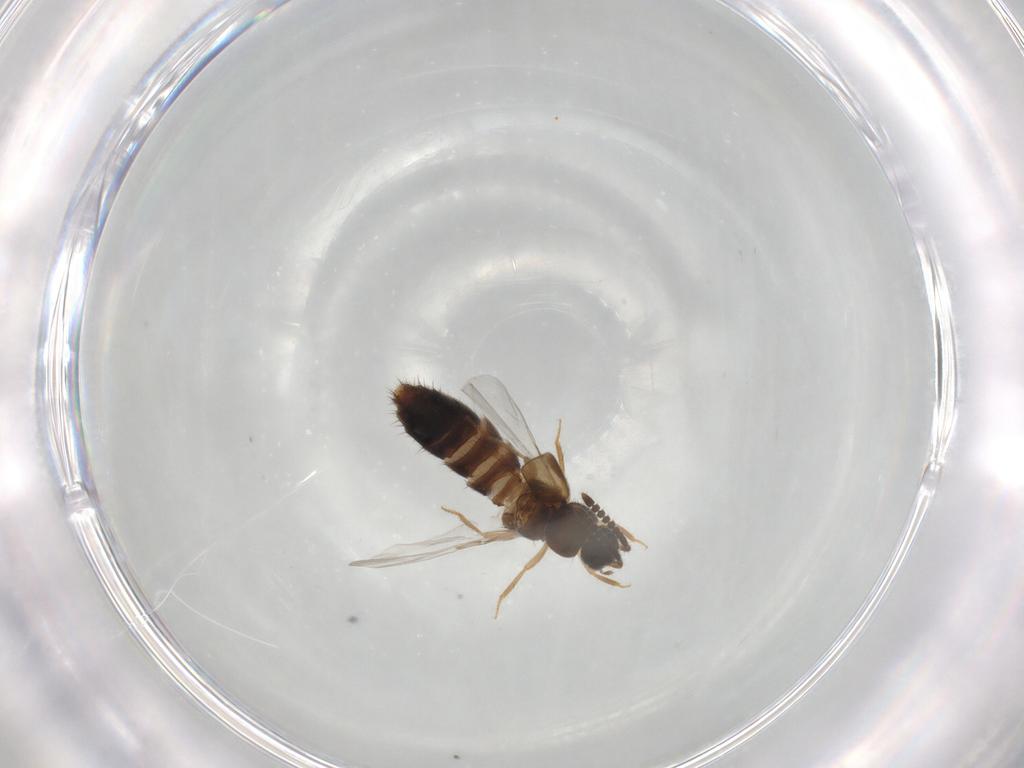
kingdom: Animalia
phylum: Arthropoda
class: Insecta
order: Coleoptera
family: Staphylinidae
